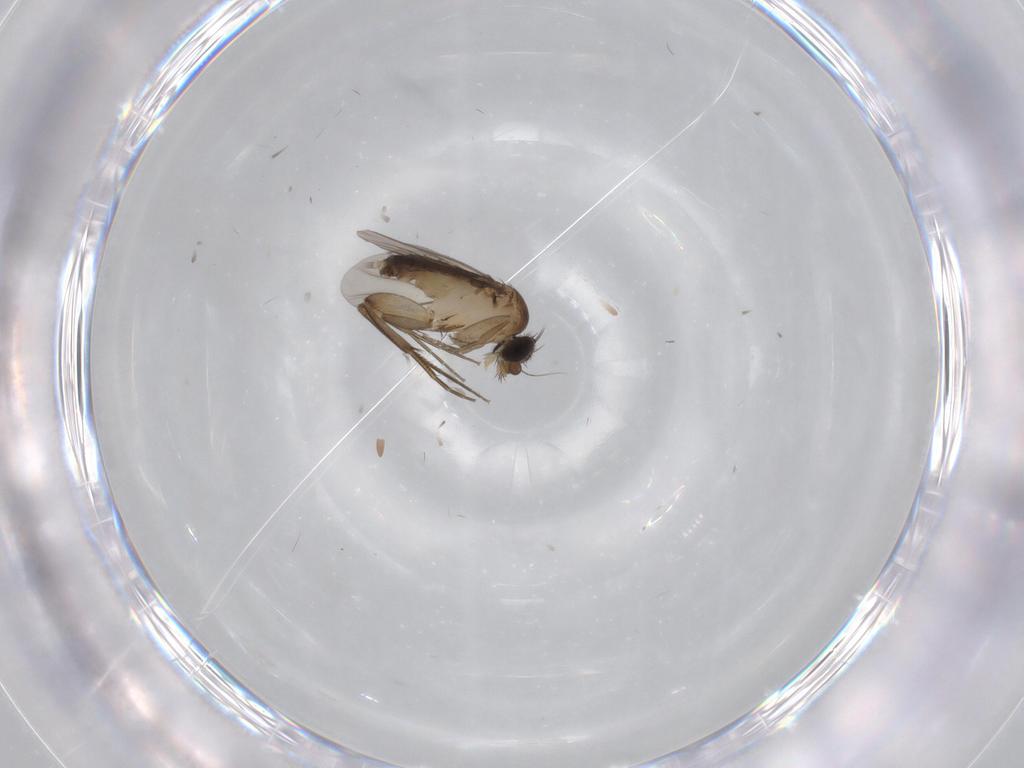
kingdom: Animalia
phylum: Arthropoda
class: Insecta
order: Diptera
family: Phoridae
